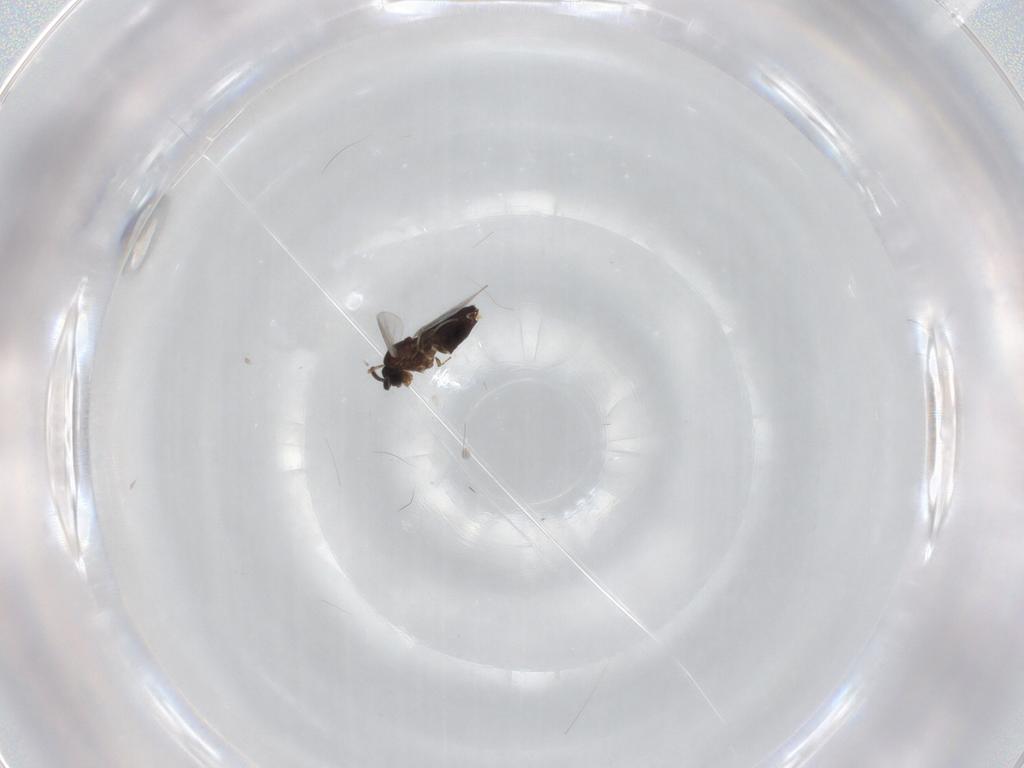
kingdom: Animalia
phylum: Arthropoda
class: Insecta
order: Diptera
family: Scatopsidae
